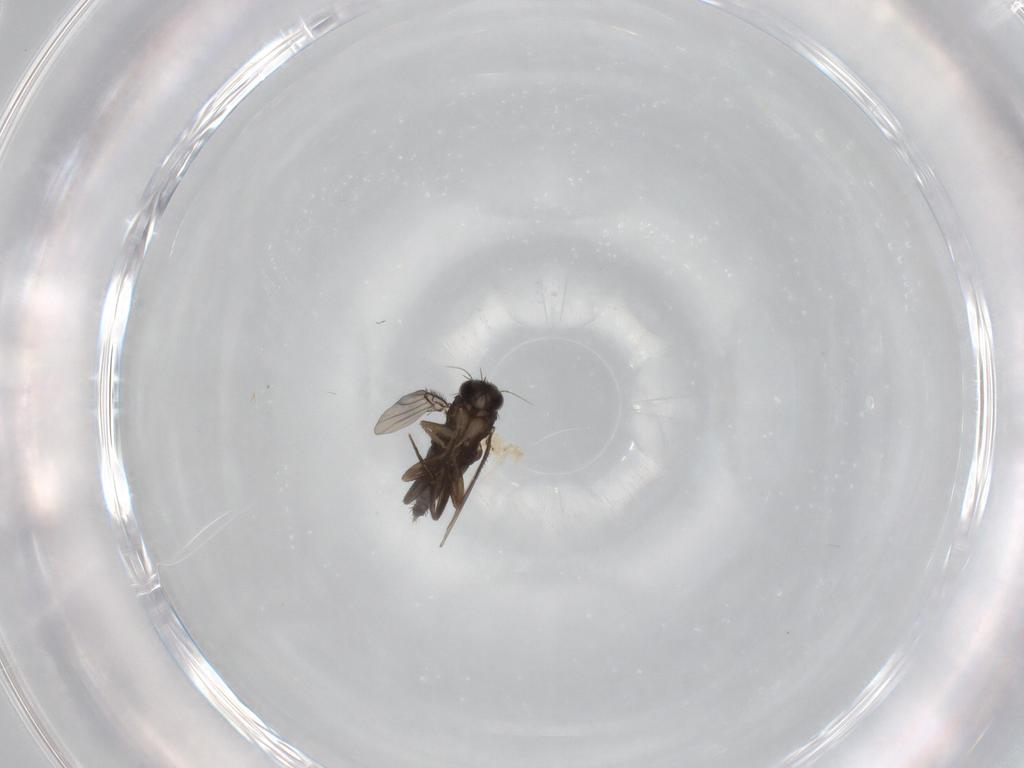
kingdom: Animalia
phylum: Arthropoda
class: Insecta
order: Diptera
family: Phoridae
